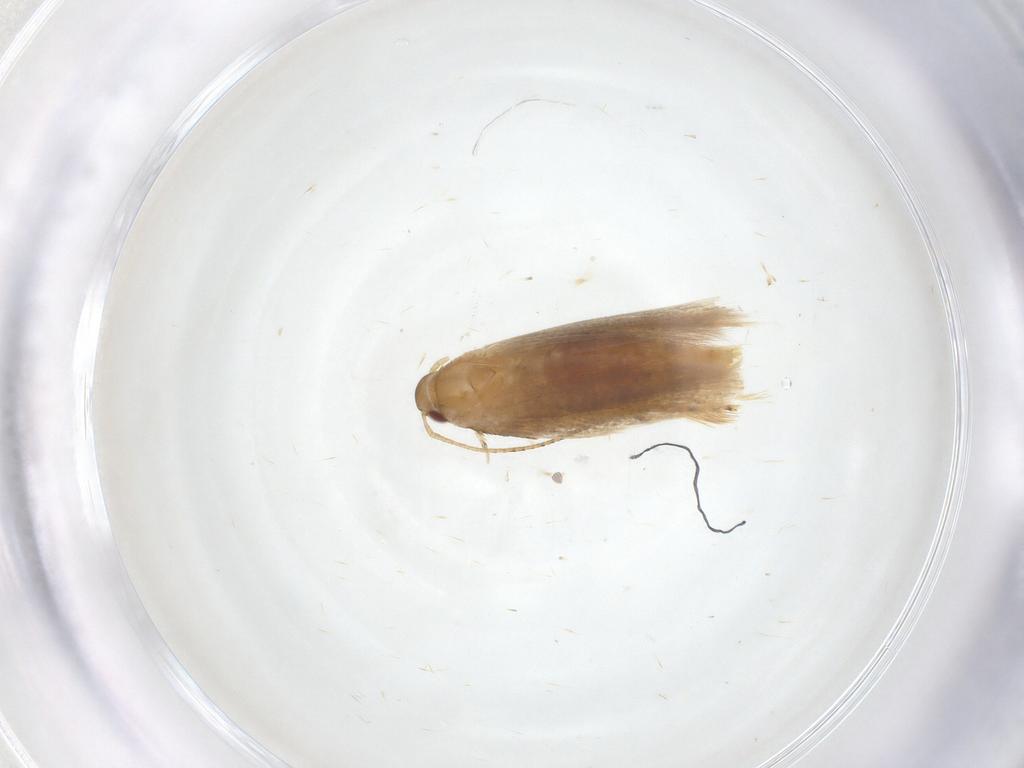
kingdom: Animalia
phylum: Arthropoda
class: Insecta
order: Lepidoptera
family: Gelechiidae
